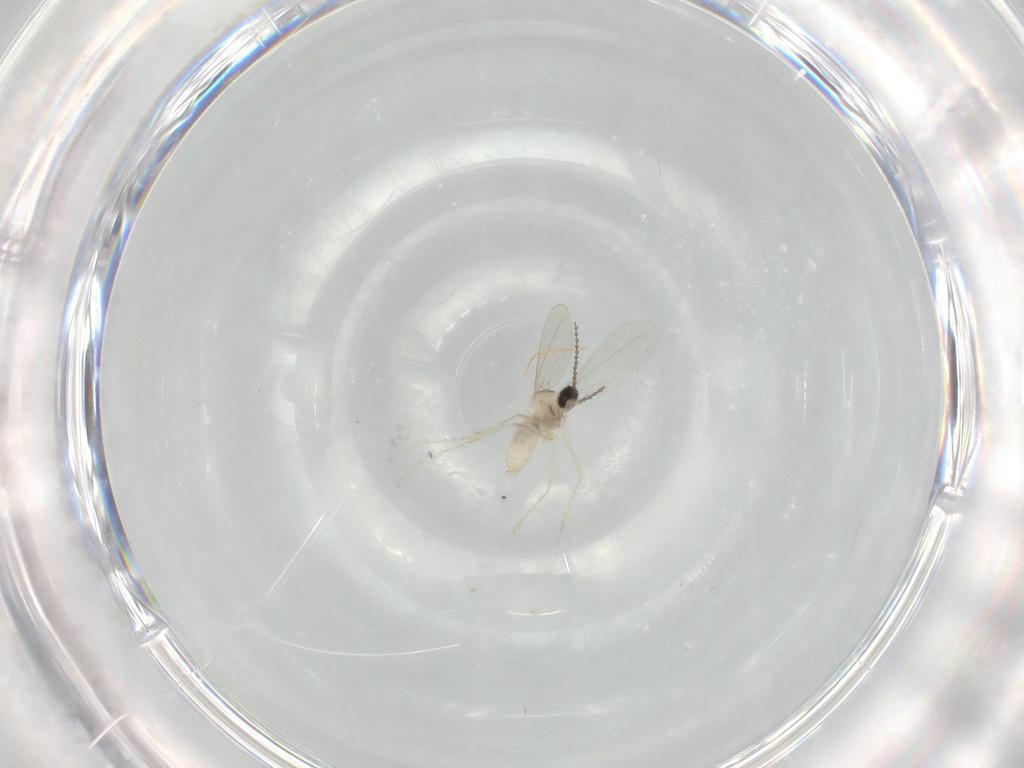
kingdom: Animalia
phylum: Arthropoda
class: Insecta
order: Diptera
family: Cecidomyiidae
